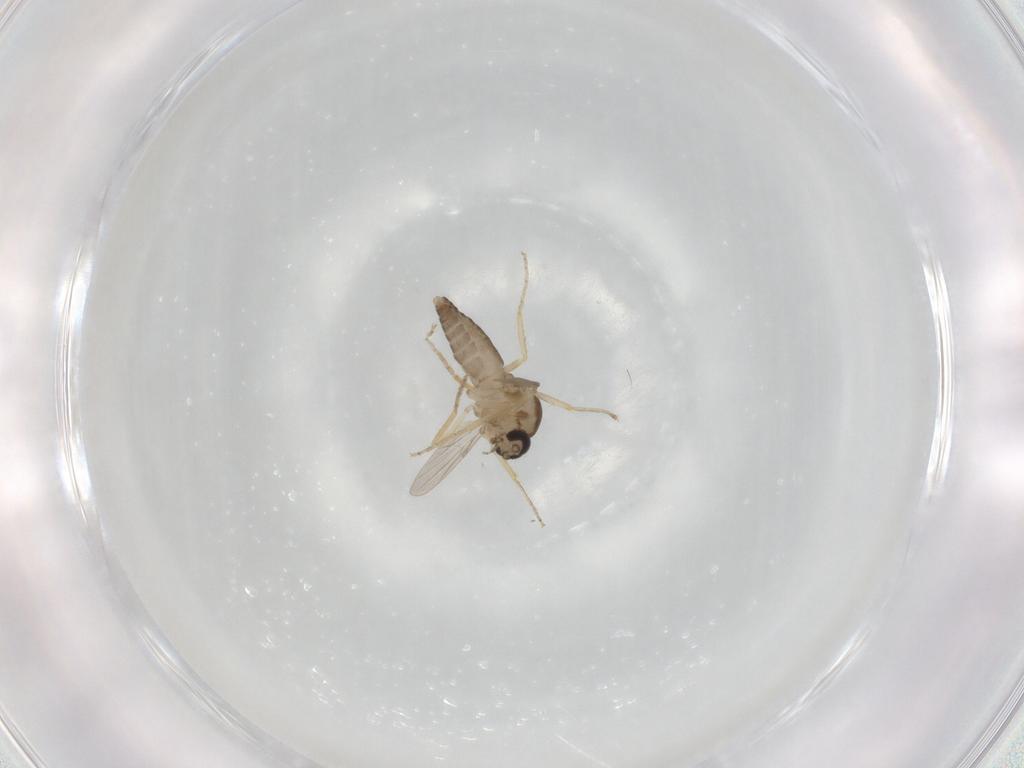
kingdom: Animalia
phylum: Arthropoda
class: Insecta
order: Diptera
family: Ceratopogonidae
